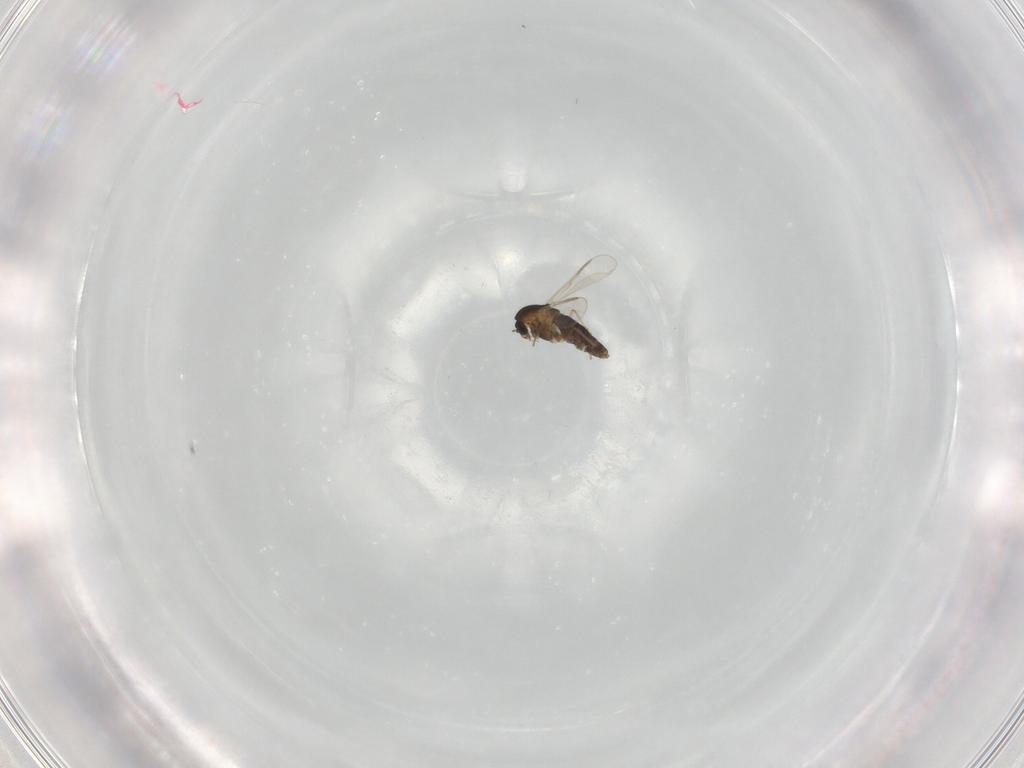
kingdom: Animalia
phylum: Arthropoda
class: Insecta
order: Diptera
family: Chironomidae
